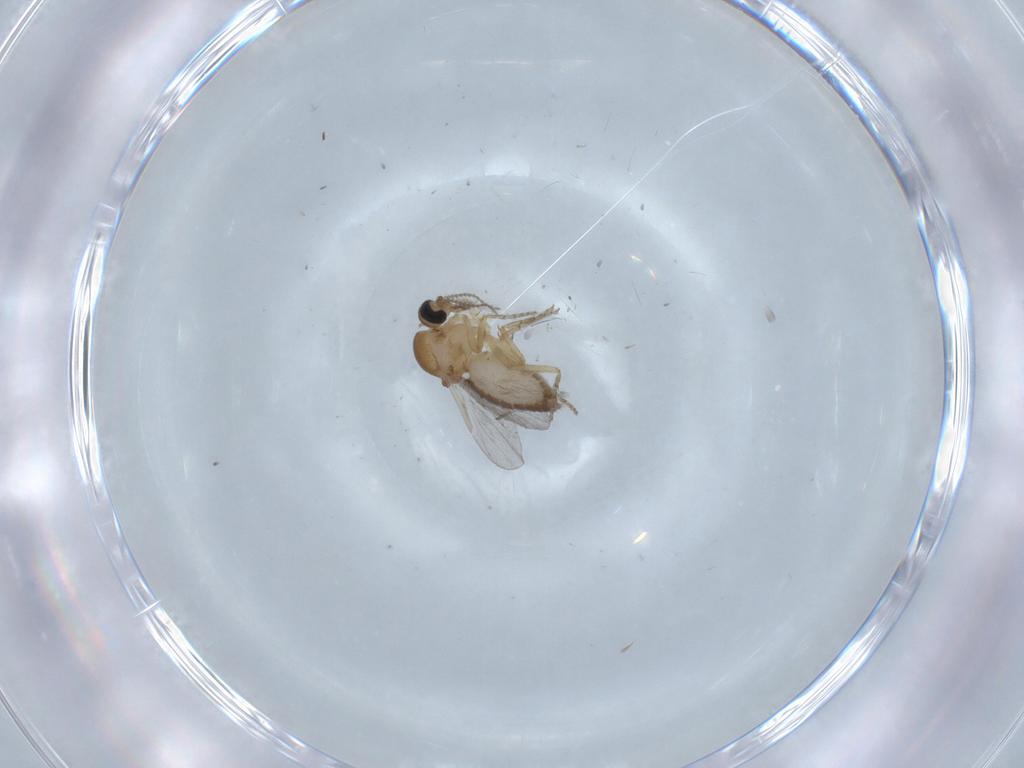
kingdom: Animalia
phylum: Arthropoda
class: Insecta
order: Diptera
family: Ceratopogonidae
